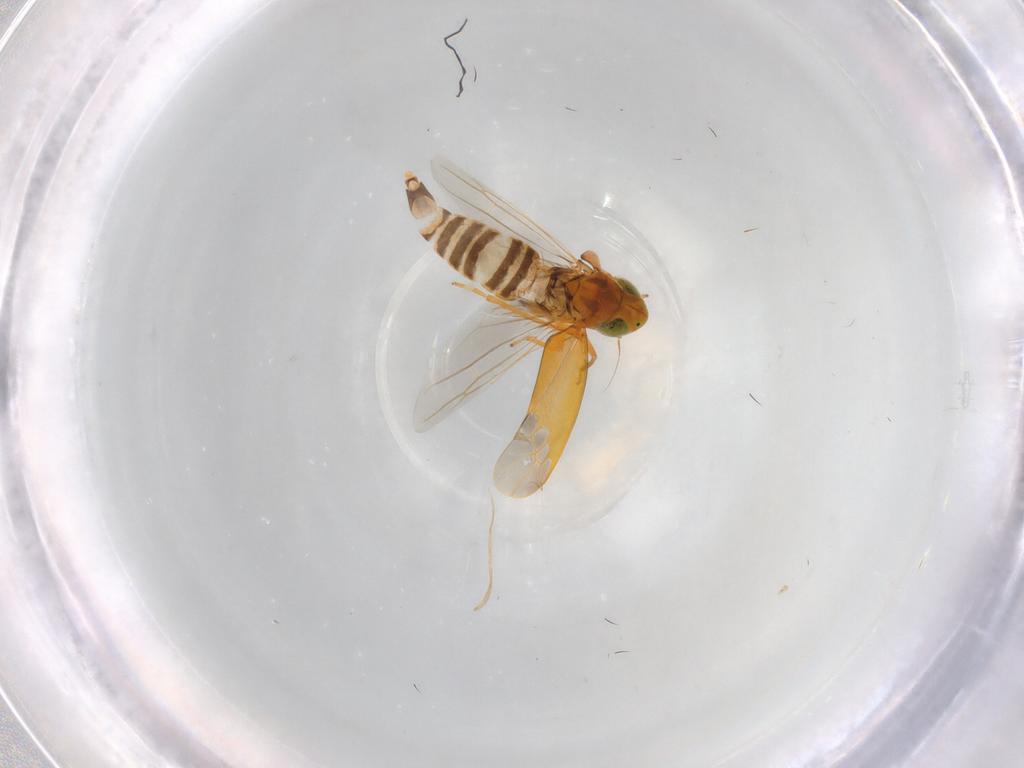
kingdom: Animalia
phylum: Arthropoda
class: Insecta
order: Hemiptera
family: Cicadellidae
